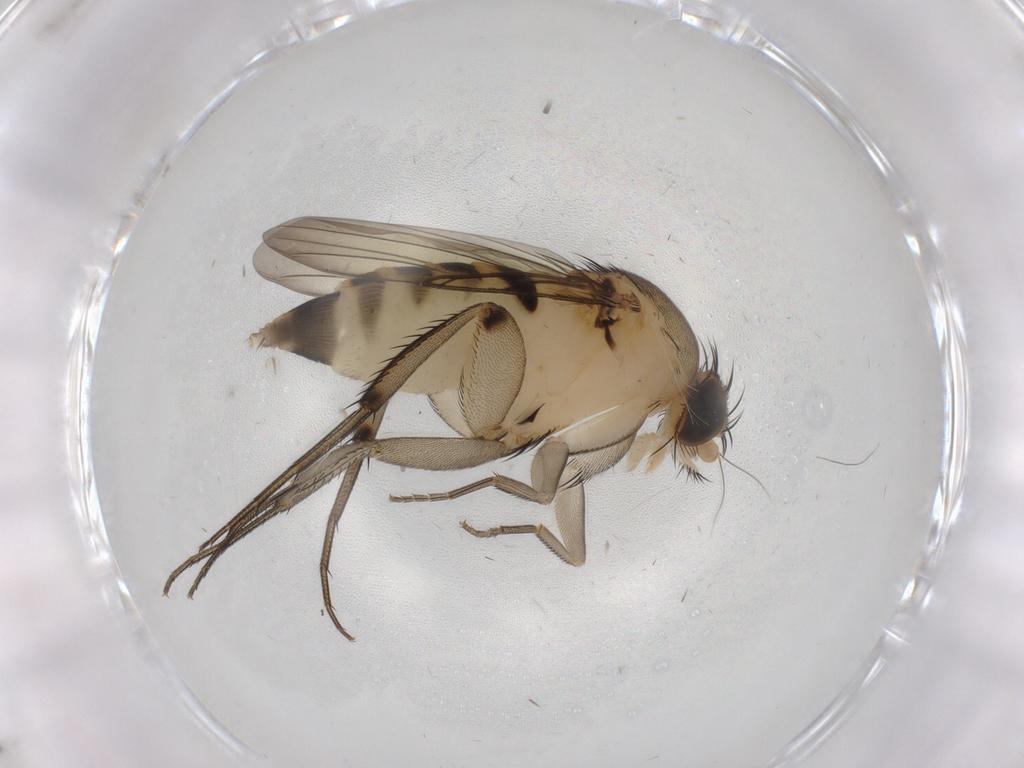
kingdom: Animalia
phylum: Arthropoda
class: Insecta
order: Diptera
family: Phoridae
